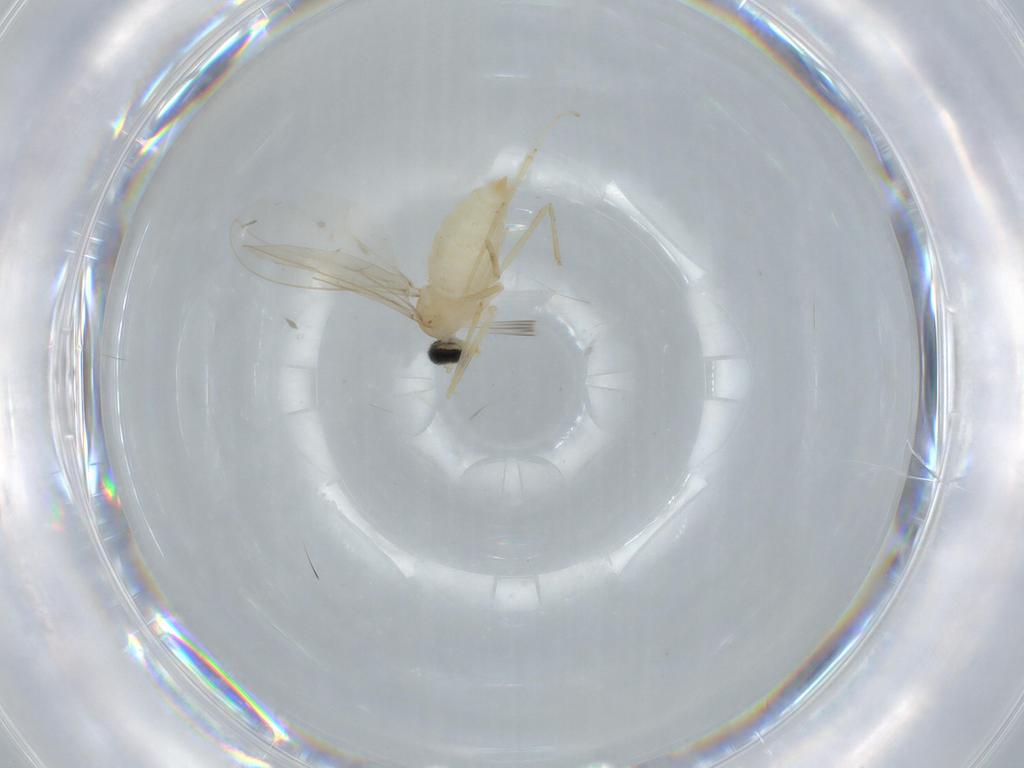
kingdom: Animalia
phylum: Arthropoda
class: Insecta
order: Diptera
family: Cecidomyiidae
